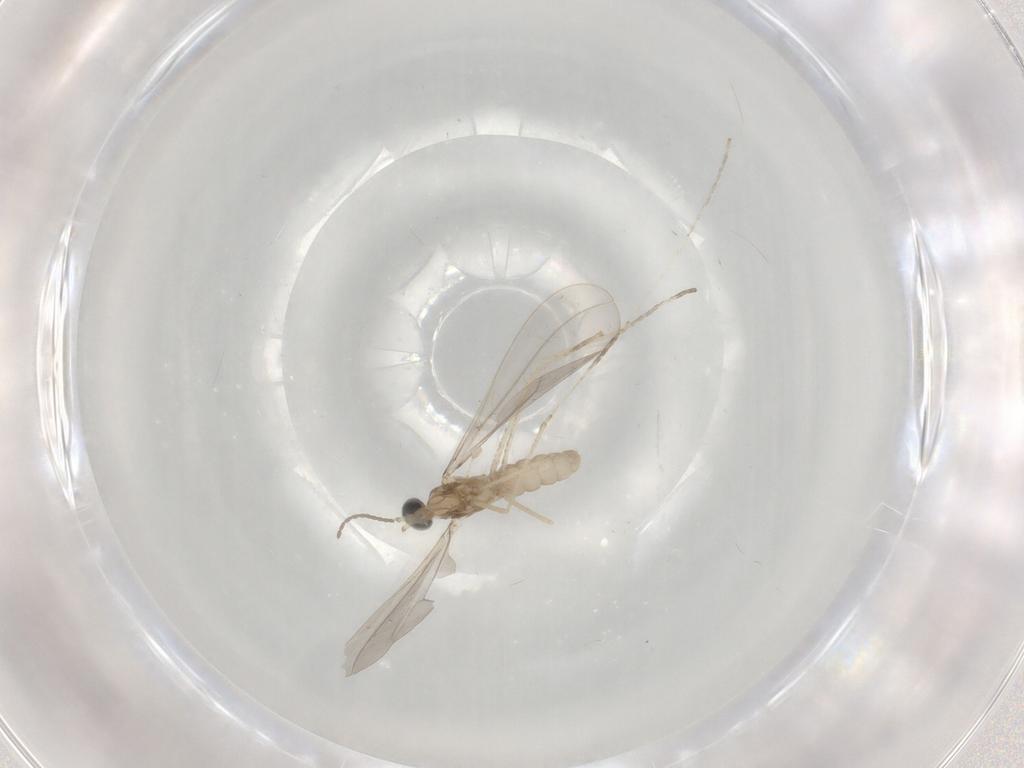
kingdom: Animalia
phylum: Arthropoda
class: Insecta
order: Diptera
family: Cecidomyiidae
